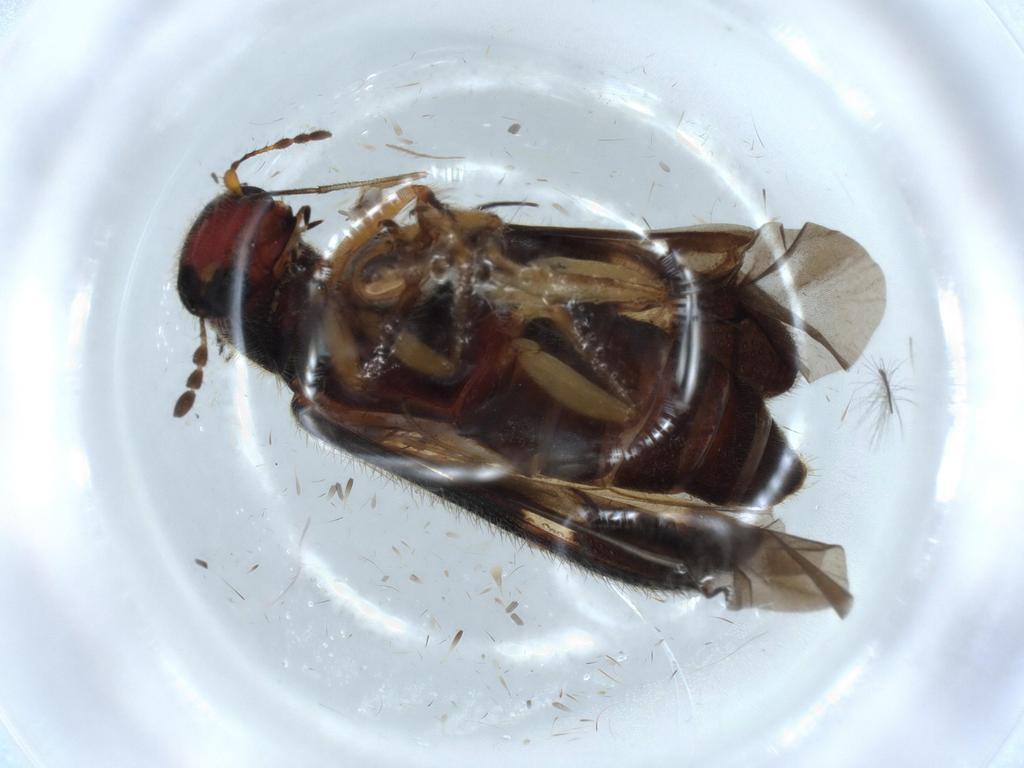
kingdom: Animalia
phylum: Arthropoda
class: Insecta
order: Coleoptera
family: Cleridae
